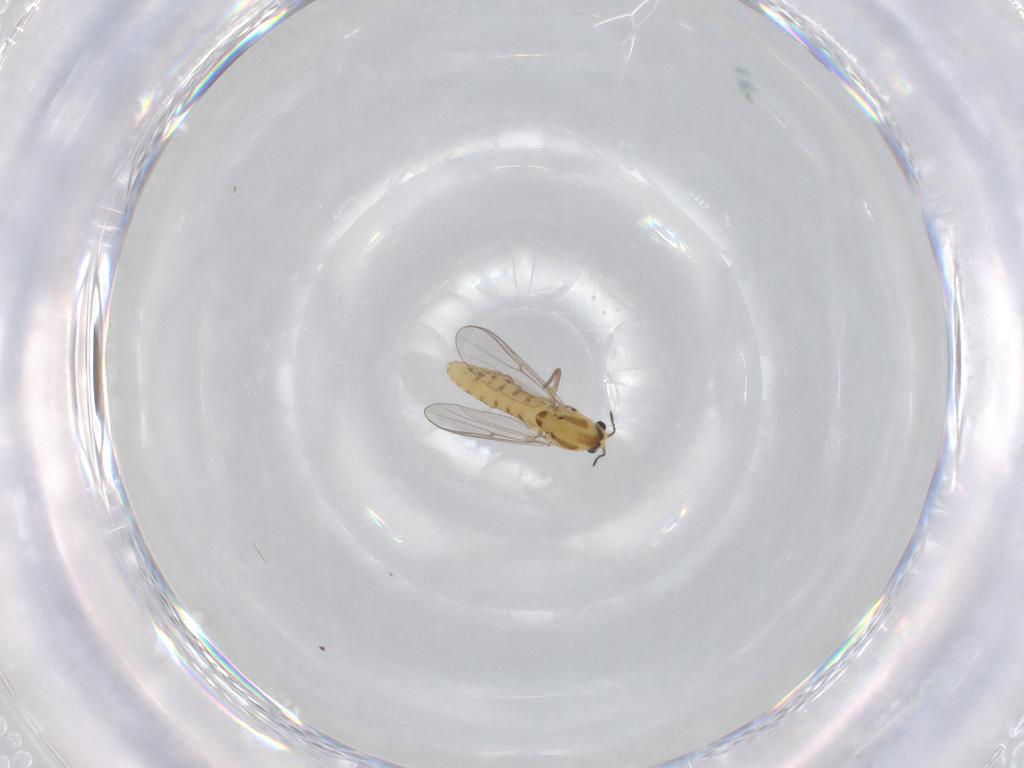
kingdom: Animalia
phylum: Arthropoda
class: Insecta
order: Diptera
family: Chironomidae
